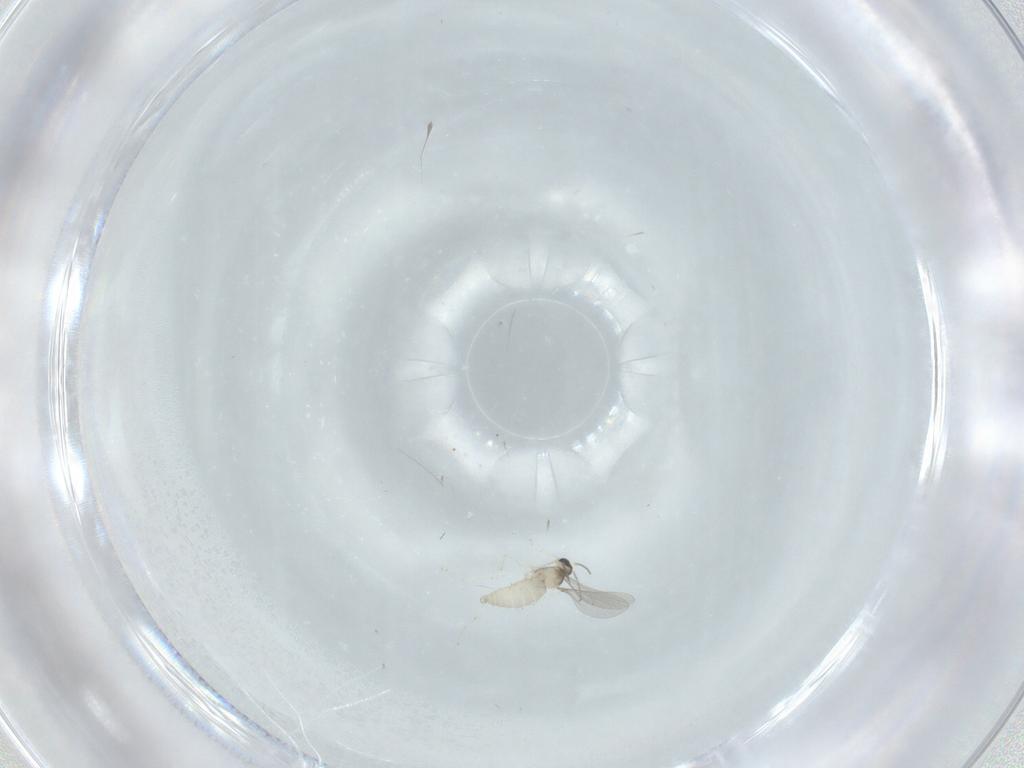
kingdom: Animalia
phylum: Arthropoda
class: Insecta
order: Diptera
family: Cecidomyiidae
